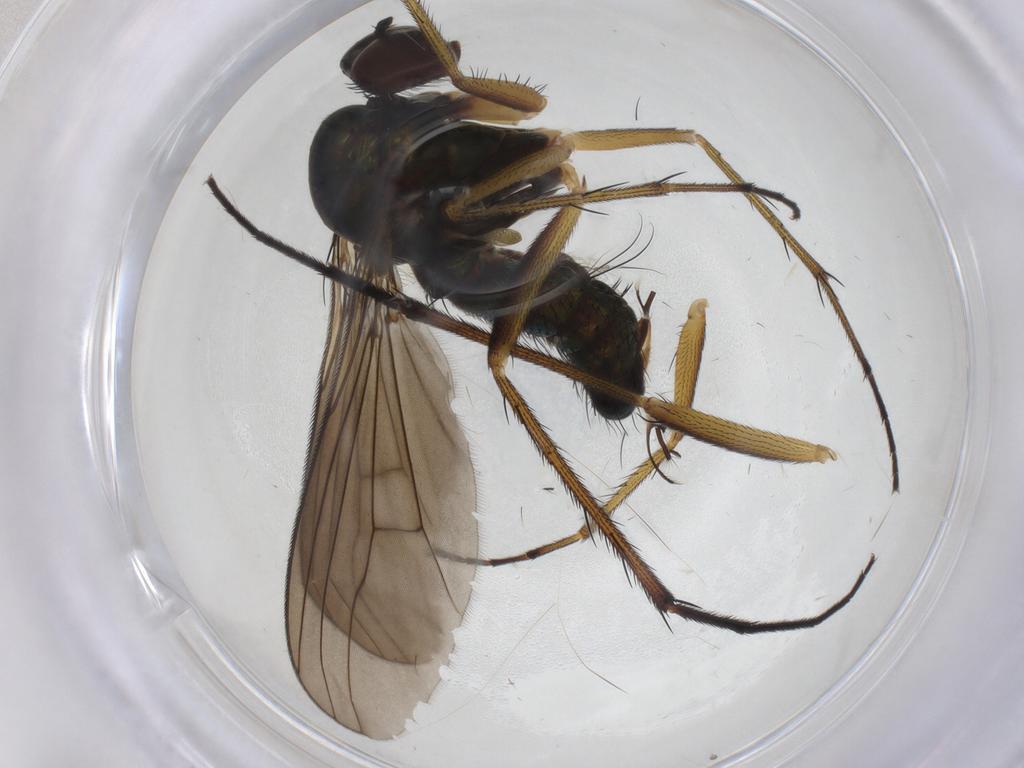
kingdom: Animalia
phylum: Arthropoda
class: Insecta
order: Diptera
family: Dolichopodidae
